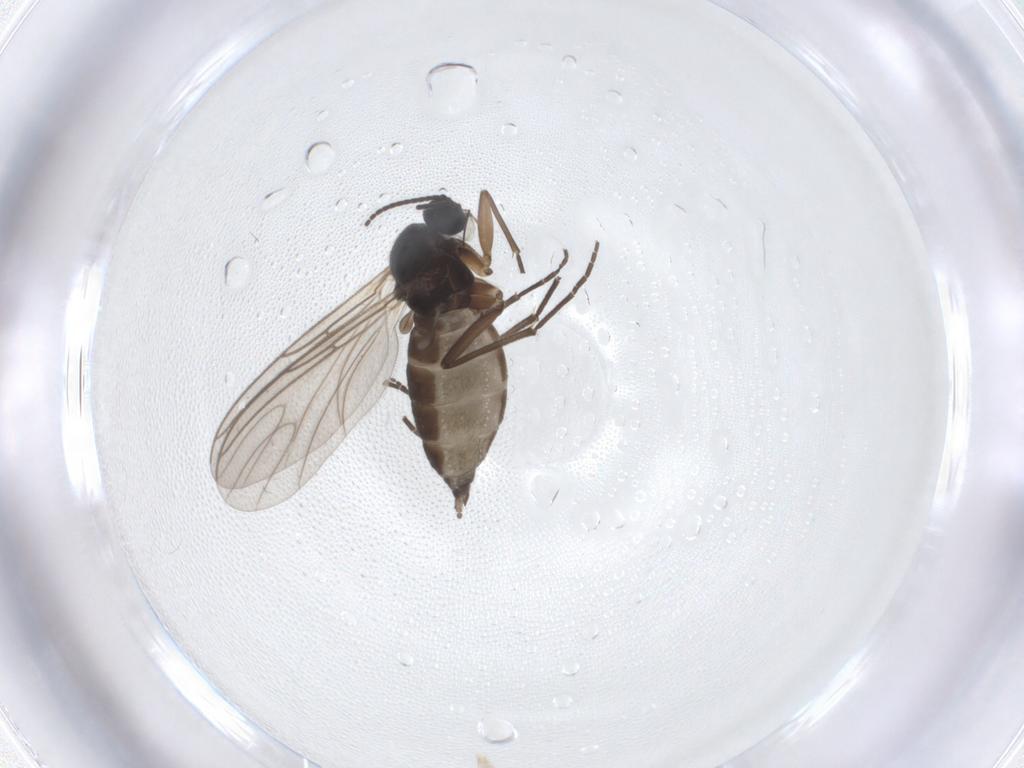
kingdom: Animalia
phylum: Arthropoda
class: Insecta
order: Diptera
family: Sciaridae
